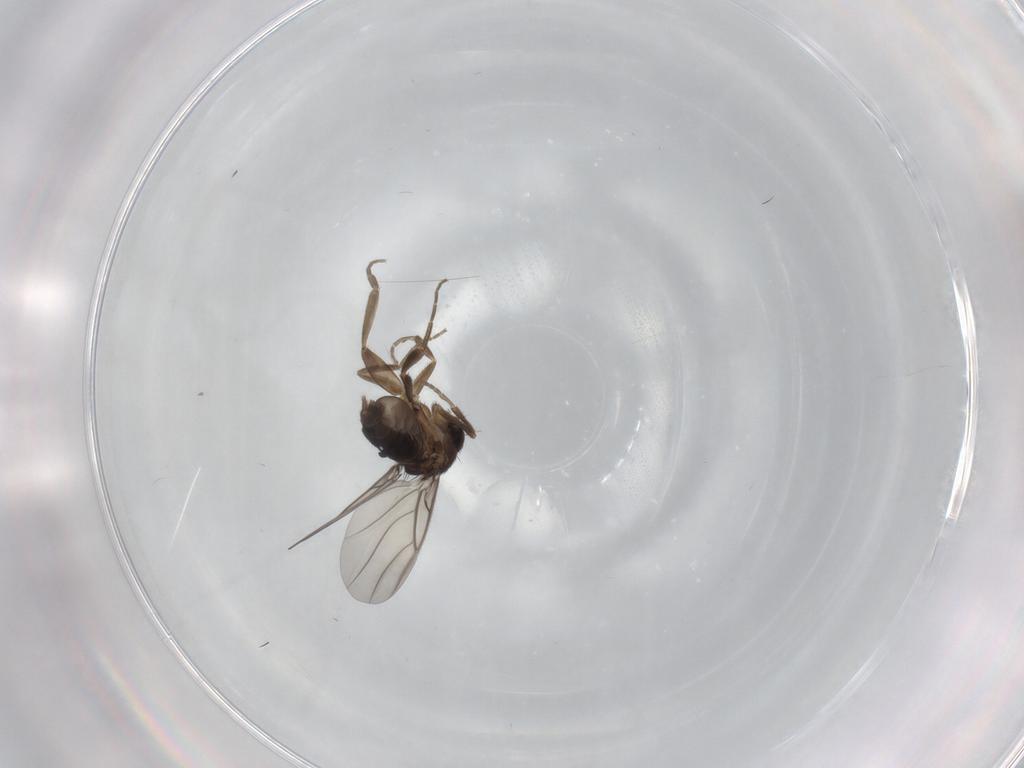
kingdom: Animalia
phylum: Arthropoda
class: Insecta
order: Diptera
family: Phoridae
